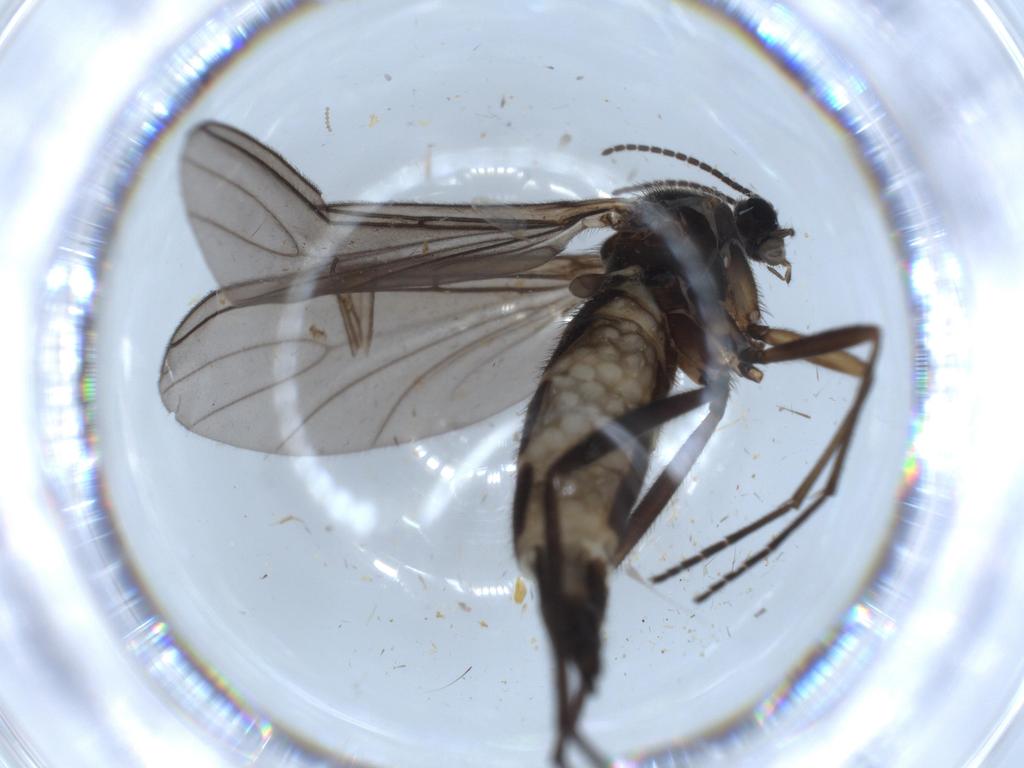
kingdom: Animalia
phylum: Arthropoda
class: Insecta
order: Diptera
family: Sciaridae
